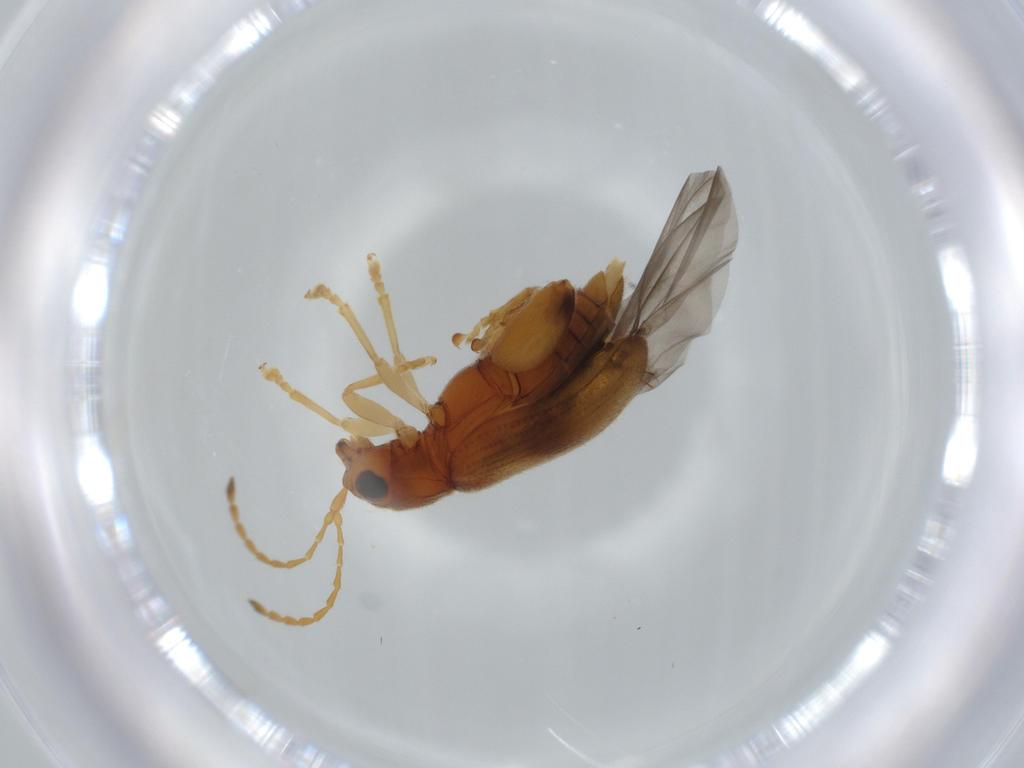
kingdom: Animalia
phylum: Arthropoda
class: Insecta
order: Coleoptera
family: Chrysomelidae
